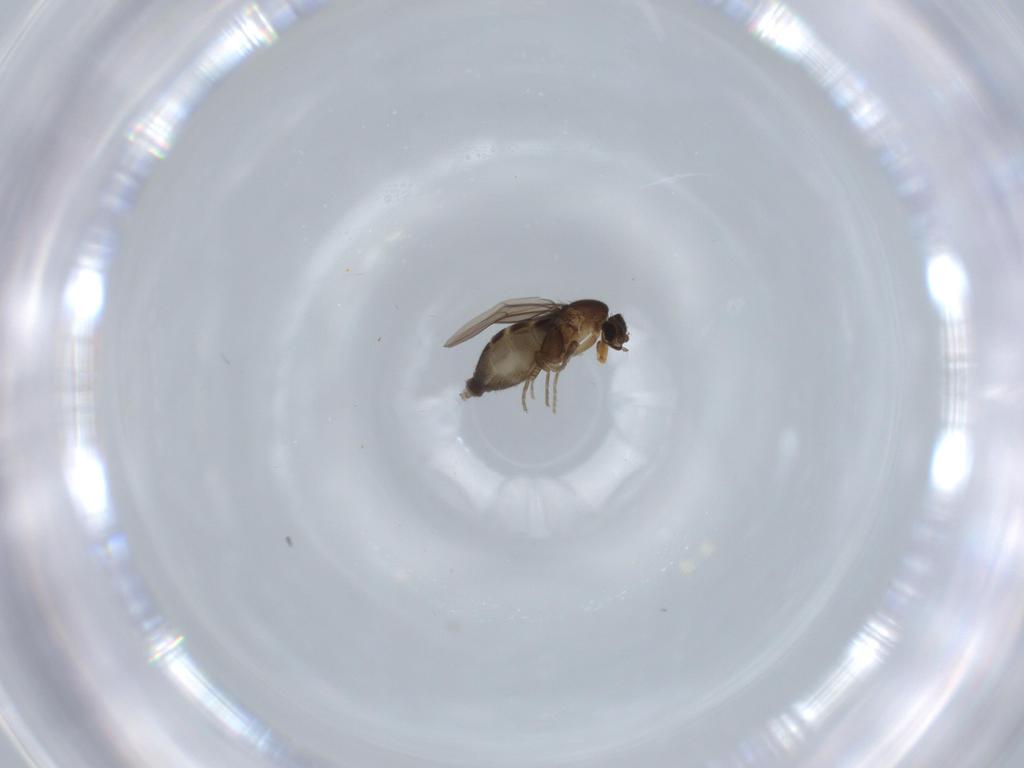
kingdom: Animalia
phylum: Arthropoda
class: Insecta
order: Diptera
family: Phoridae
